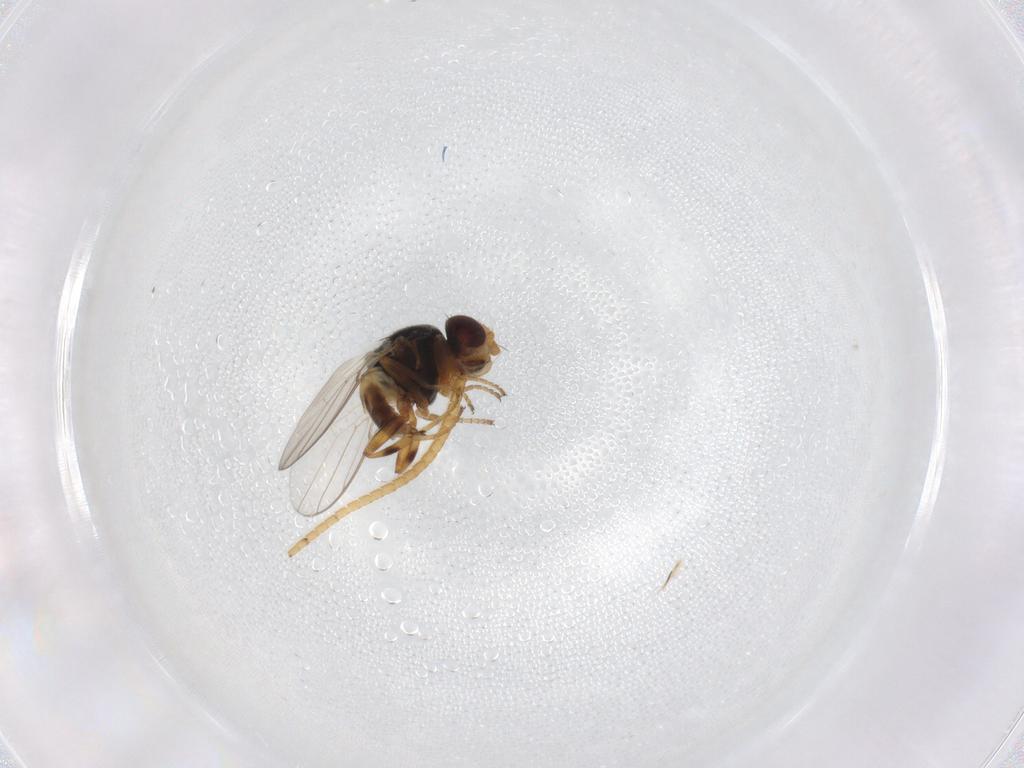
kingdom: Animalia
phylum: Arthropoda
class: Insecta
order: Diptera
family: Chloropidae
